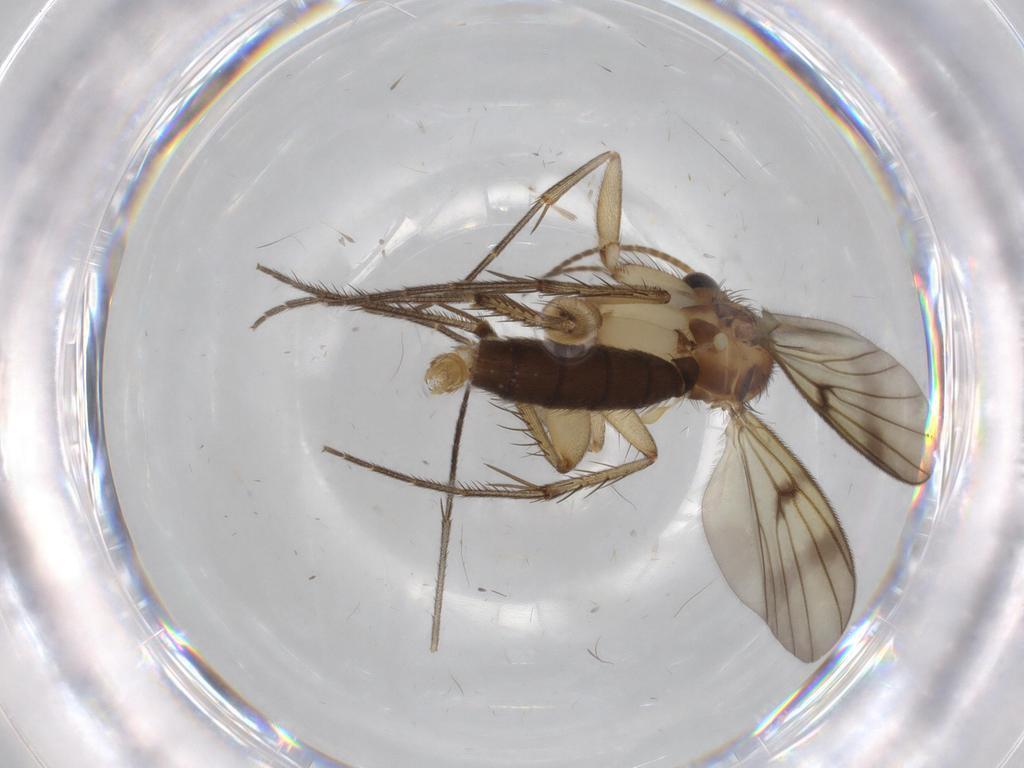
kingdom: Animalia
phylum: Arthropoda
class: Insecta
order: Diptera
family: Sciaridae
